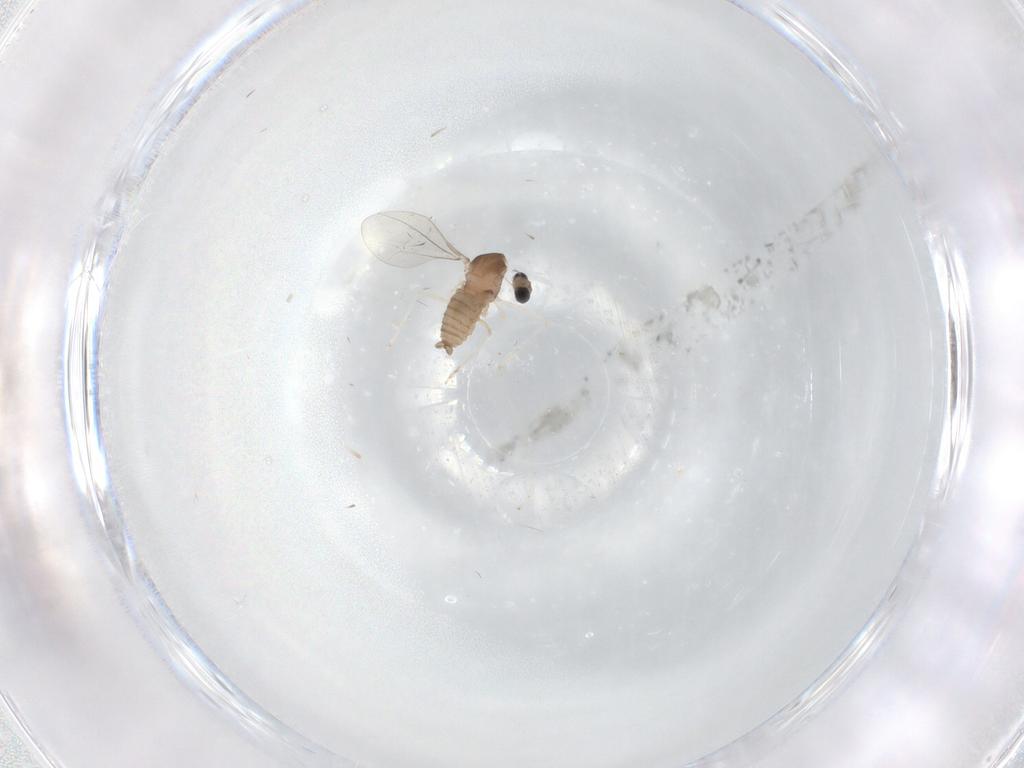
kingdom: Animalia
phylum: Arthropoda
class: Insecta
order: Diptera
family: Cecidomyiidae
